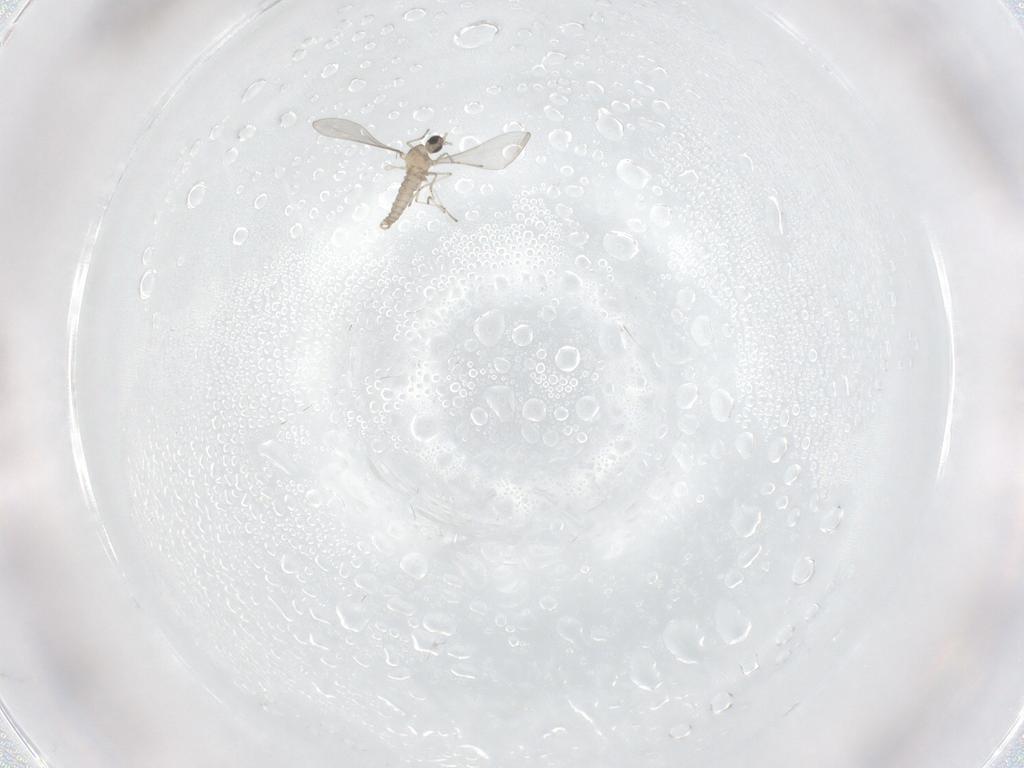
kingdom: Animalia
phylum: Arthropoda
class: Insecta
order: Diptera
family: Cecidomyiidae
